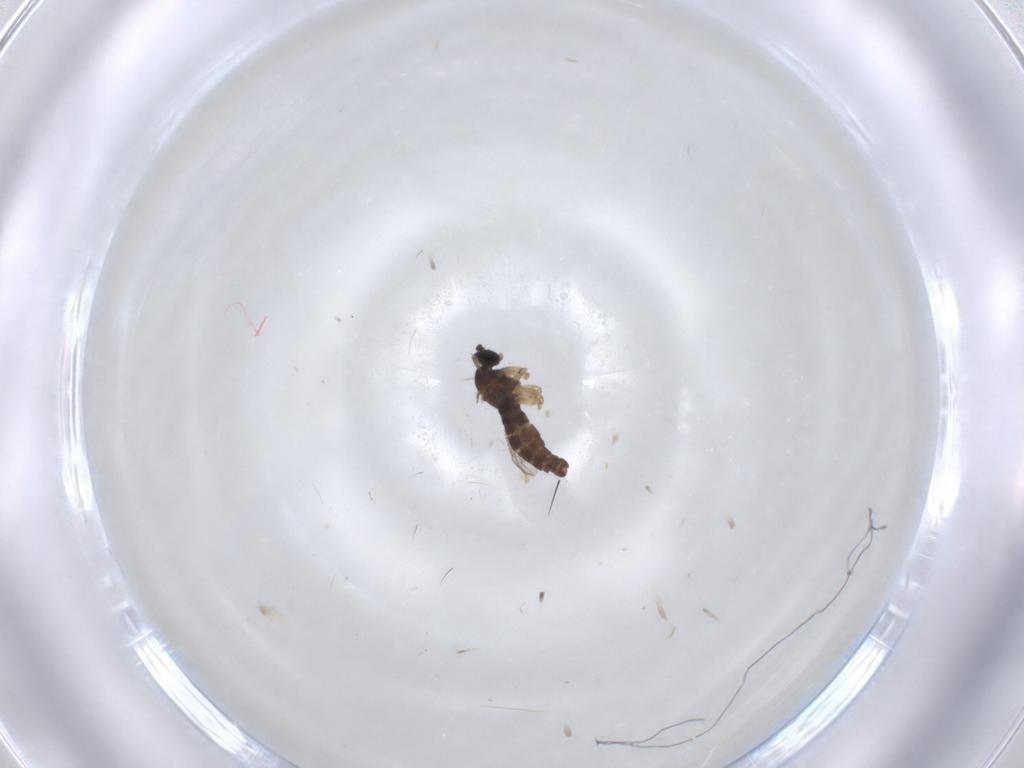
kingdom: Animalia
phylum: Arthropoda
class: Insecta
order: Diptera
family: Sciaridae
